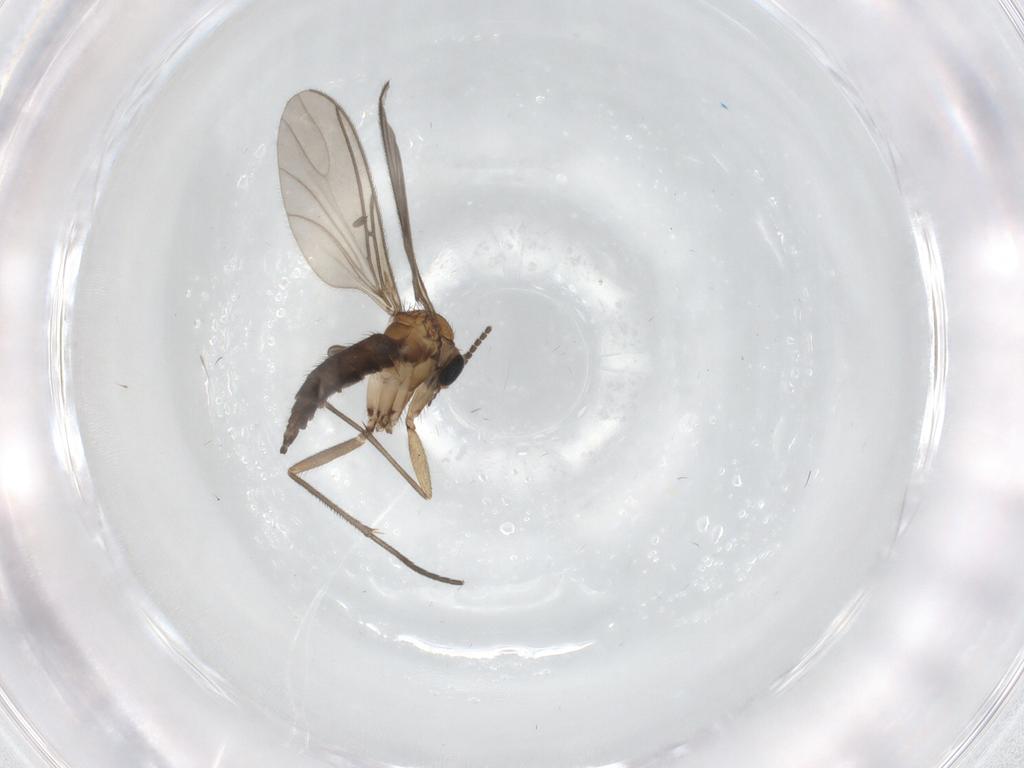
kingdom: Animalia
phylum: Arthropoda
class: Insecta
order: Diptera
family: Sciaridae
